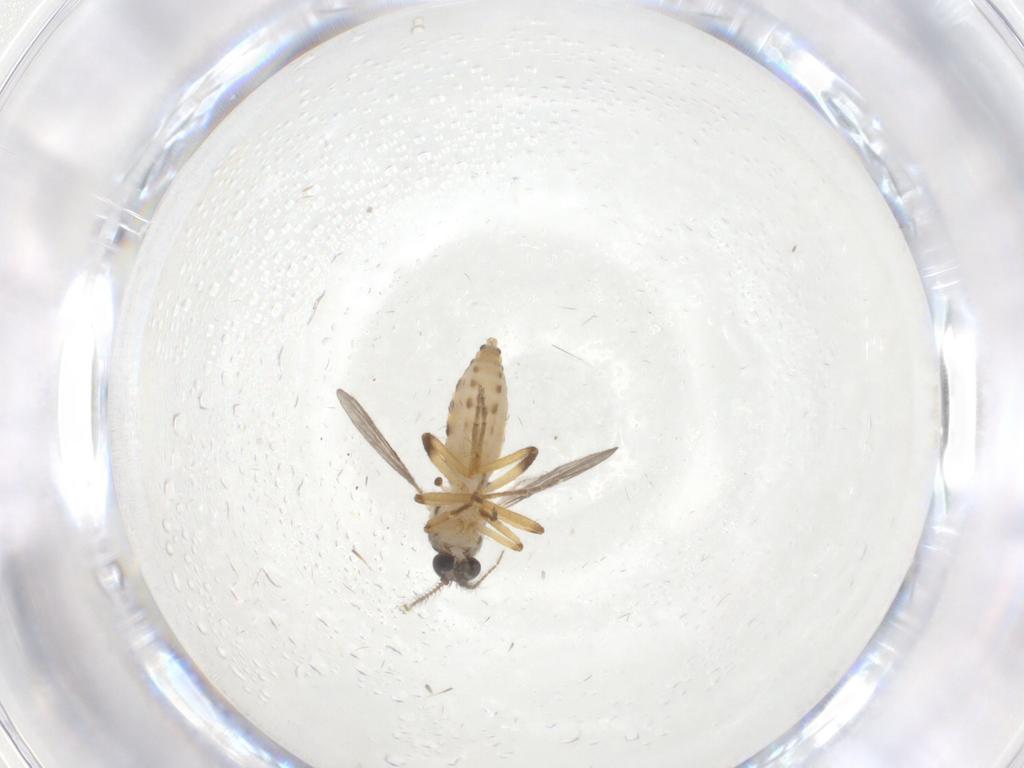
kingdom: Animalia
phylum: Arthropoda
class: Insecta
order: Diptera
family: Ceratopogonidae
